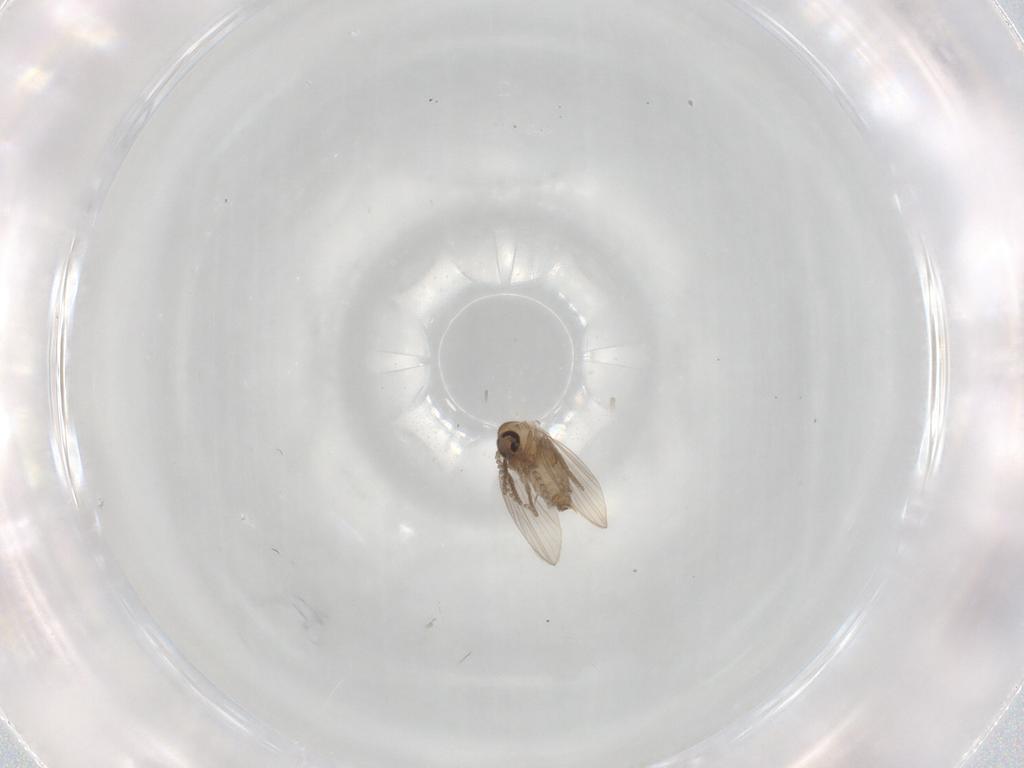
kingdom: Animalia
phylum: Arthropoda
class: Insecta
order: Diptera
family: Psychodidae
